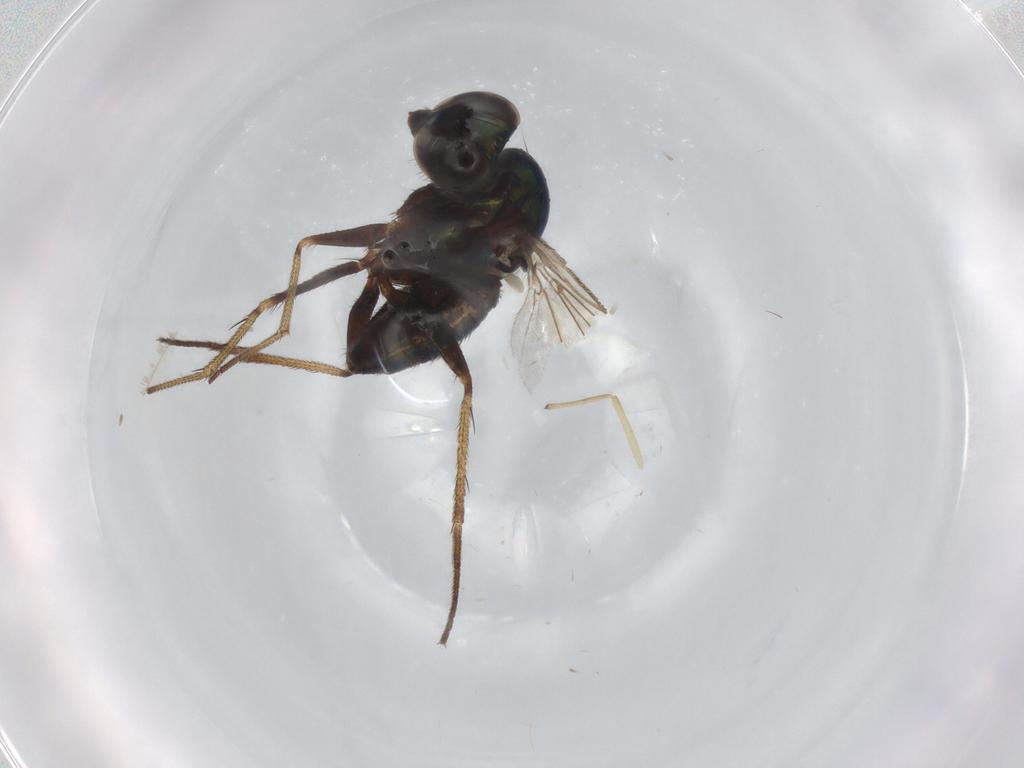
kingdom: Animalia
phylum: Arthropoda
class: Insecta
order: Diptera
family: Dolichopodidae
